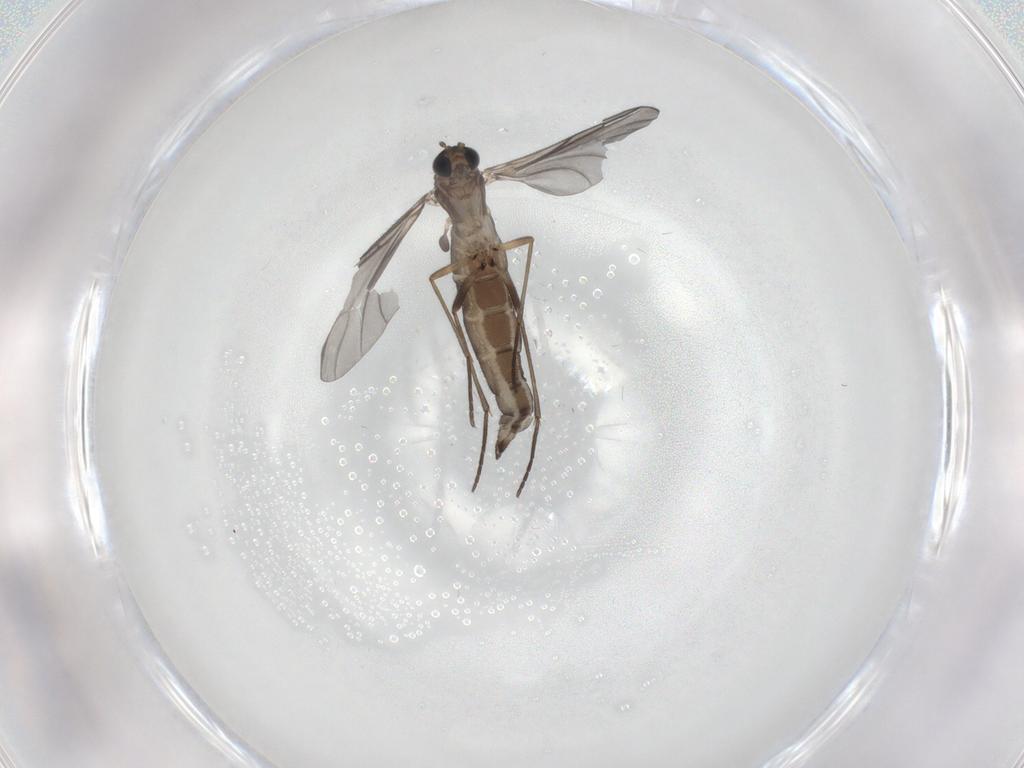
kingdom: Animalia
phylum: Arthropoda
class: Insecta
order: Diptera
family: Sciaridae
